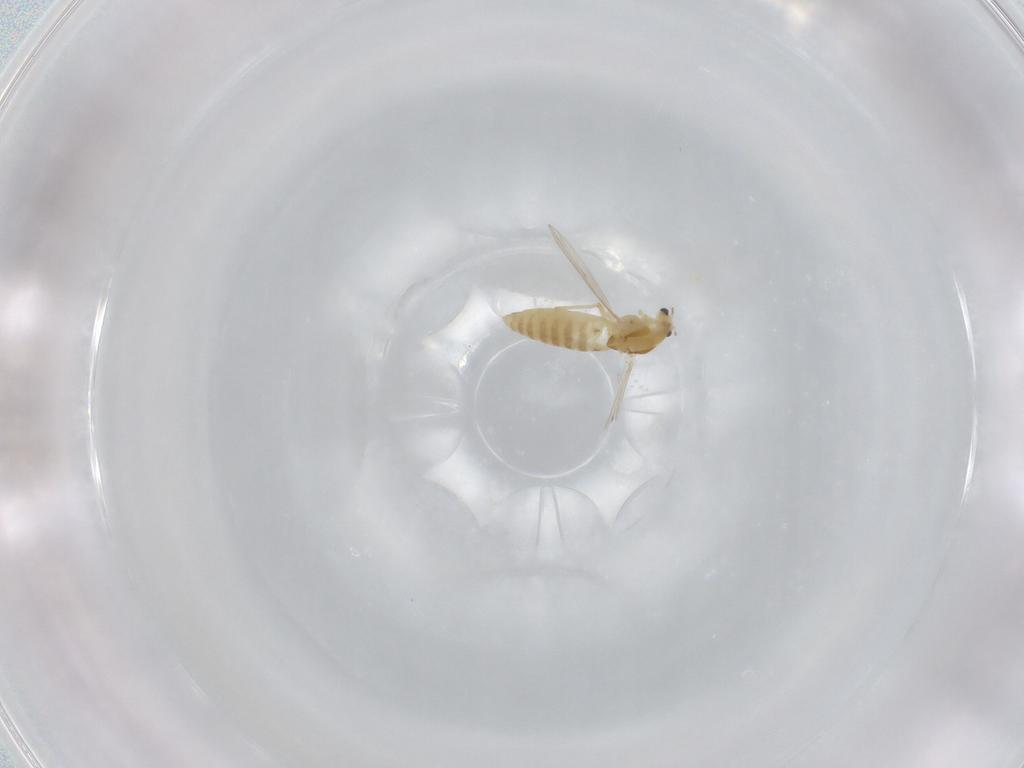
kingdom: Animalia
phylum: Arthropoda
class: Insecta
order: Diptera
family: Chironomidae
